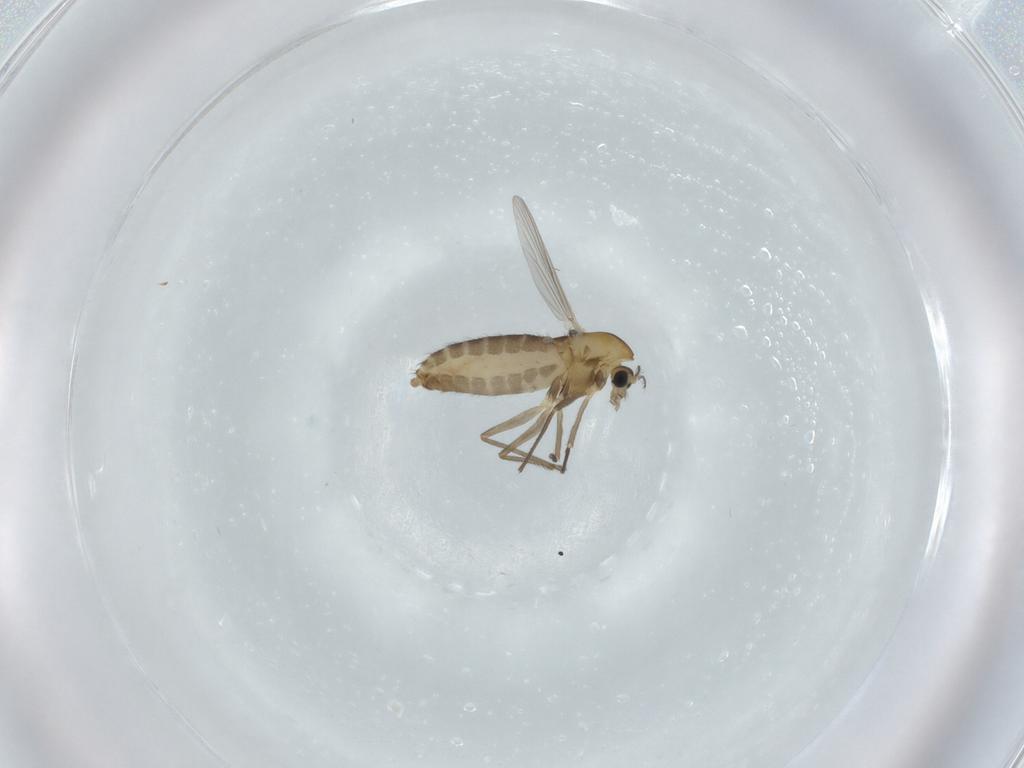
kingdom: Animalia
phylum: Arthropoda
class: Insecta
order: Diptera
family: Chironomidae
